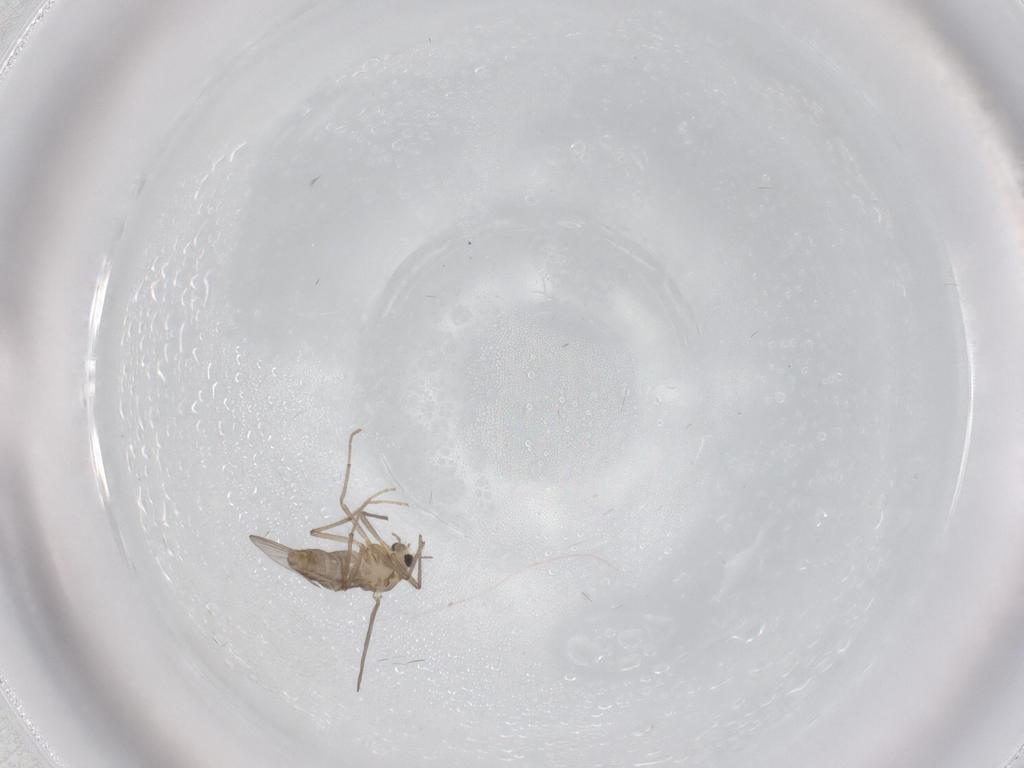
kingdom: Animalia
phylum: Arthropoda
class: Insecta
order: Diptera
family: Chironomidae
